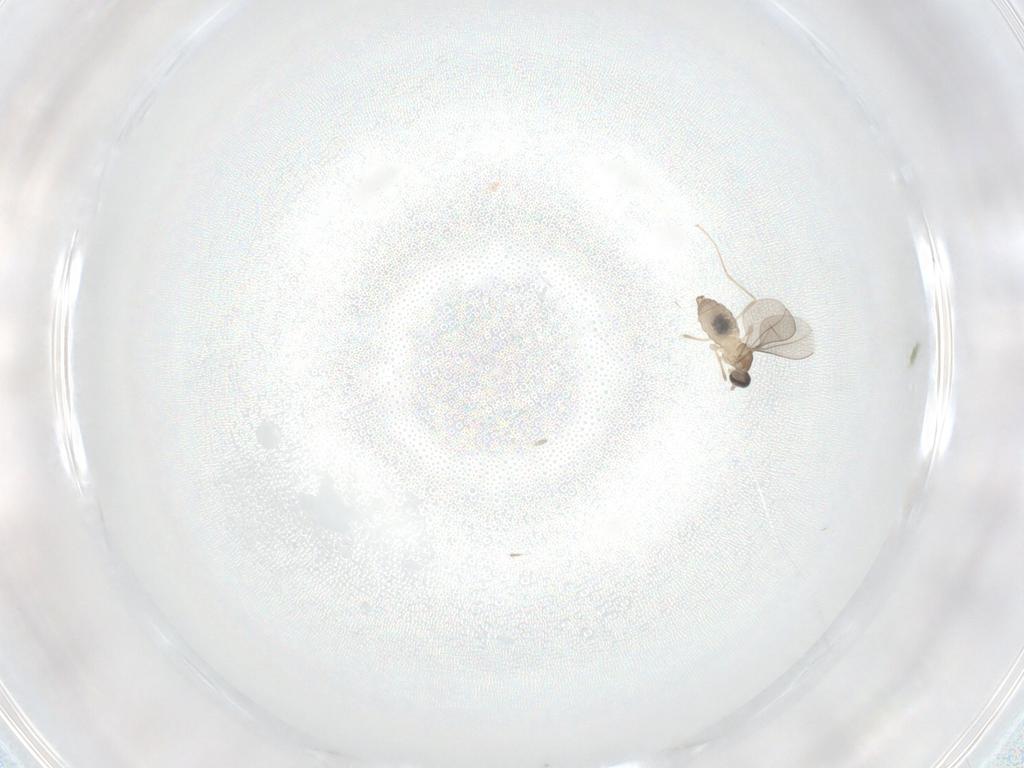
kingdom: Animalia
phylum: Arthropoda
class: Insecta
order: Diptera
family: Cecidomyiidae
